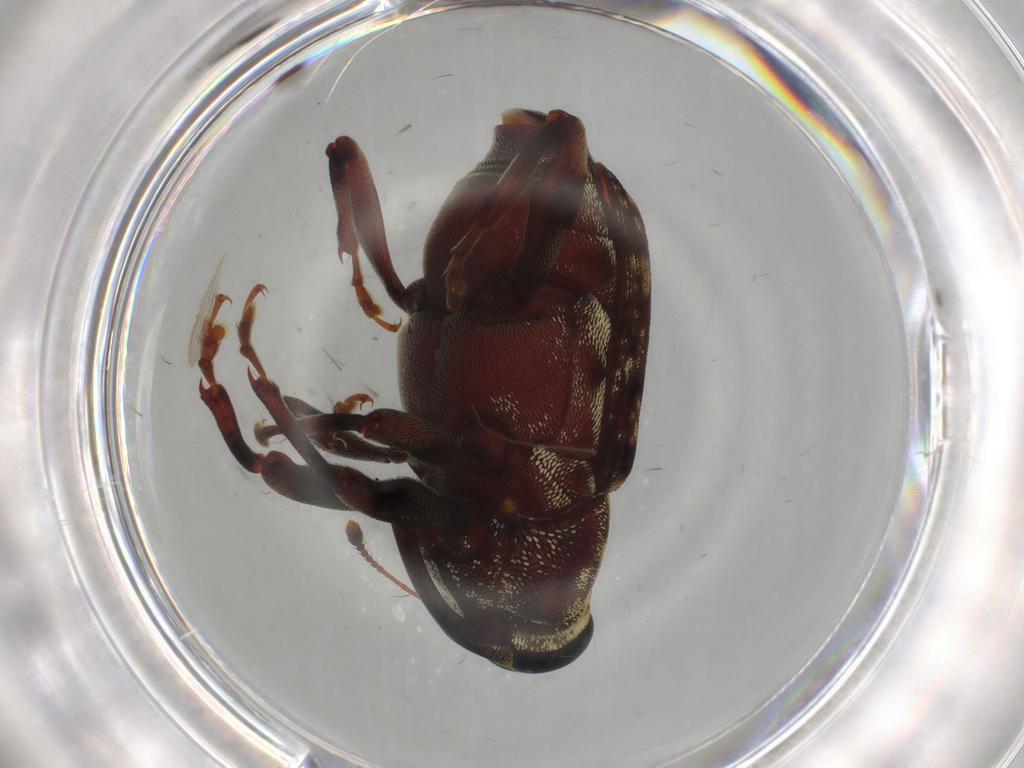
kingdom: Animalia
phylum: Arthropoda
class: Insecta
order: Coleoptera
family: Curculionidae
